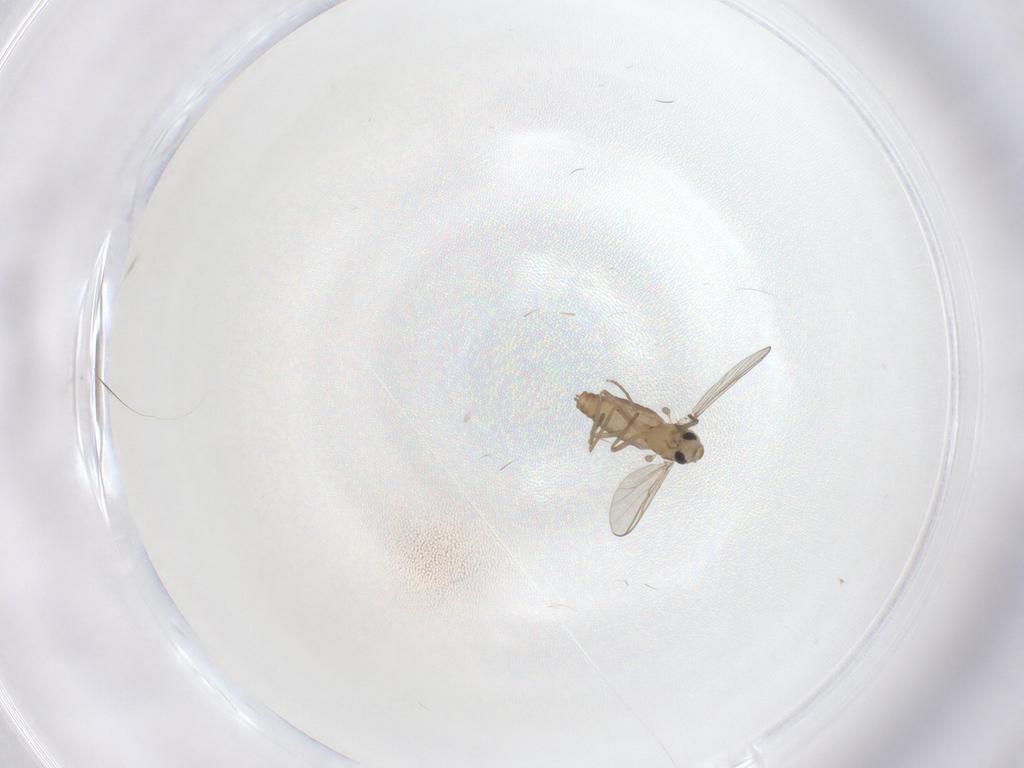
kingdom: Animalia
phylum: Arthropoda
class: Insecta
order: Diptera
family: Chironomidae
